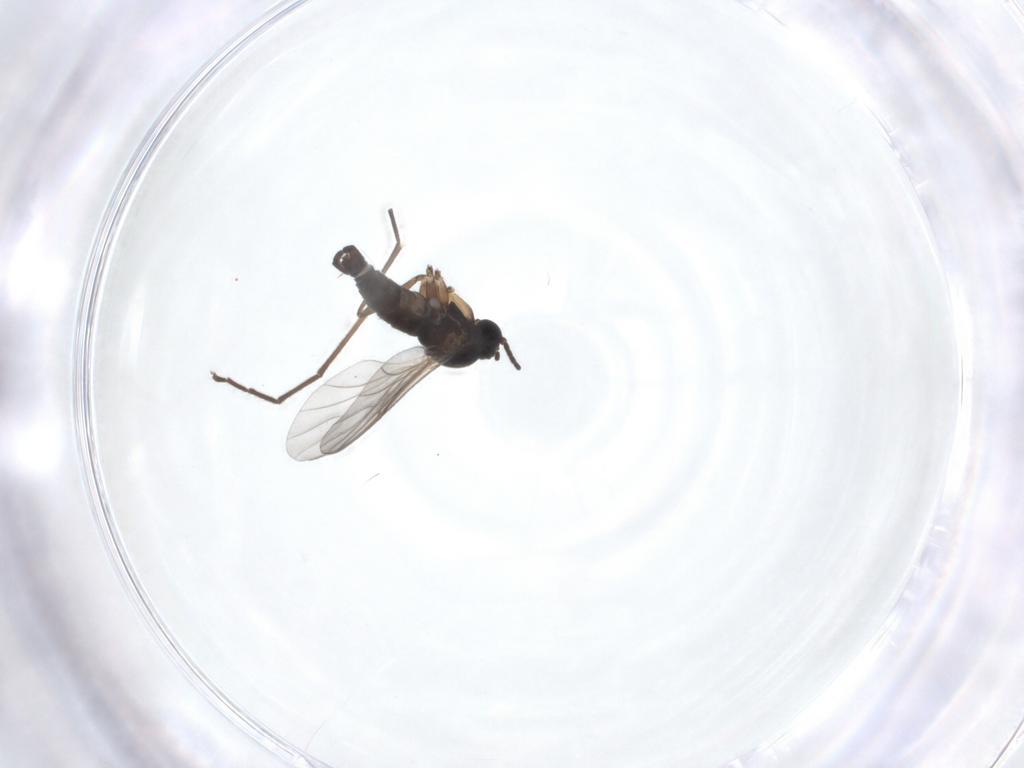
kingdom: Animalia
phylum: Arthropoda
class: Insecta
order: Diptera
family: Sciaridae
